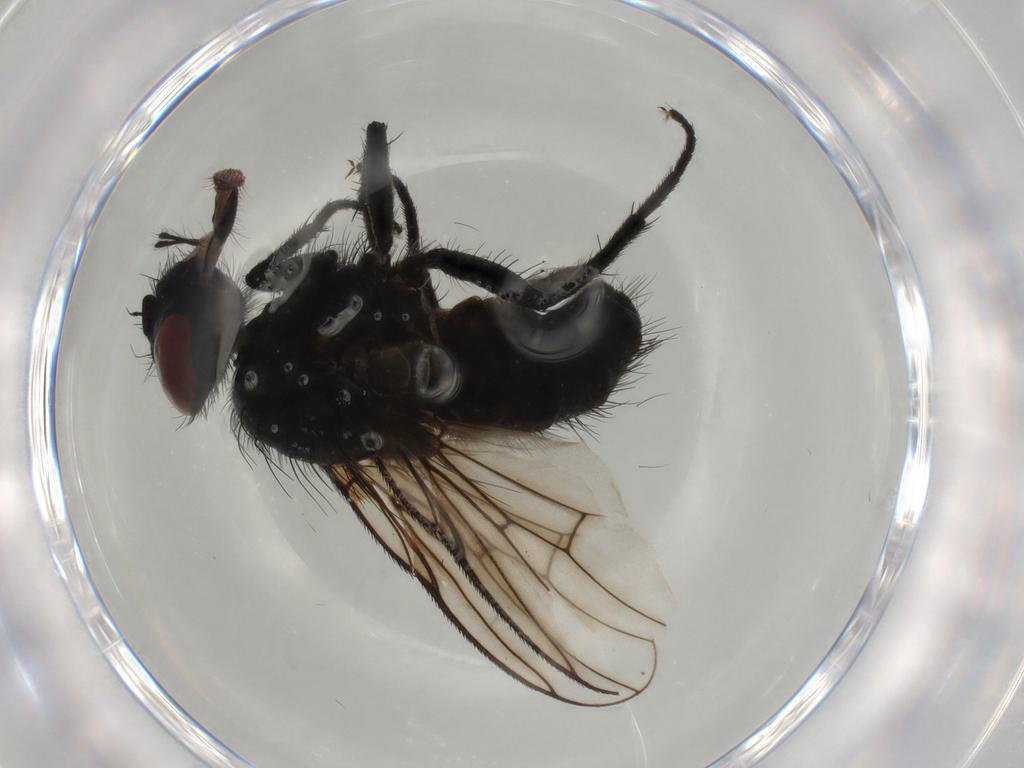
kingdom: Animalia
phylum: Arthropoda
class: Insecta
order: Diptera
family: Muscidae
